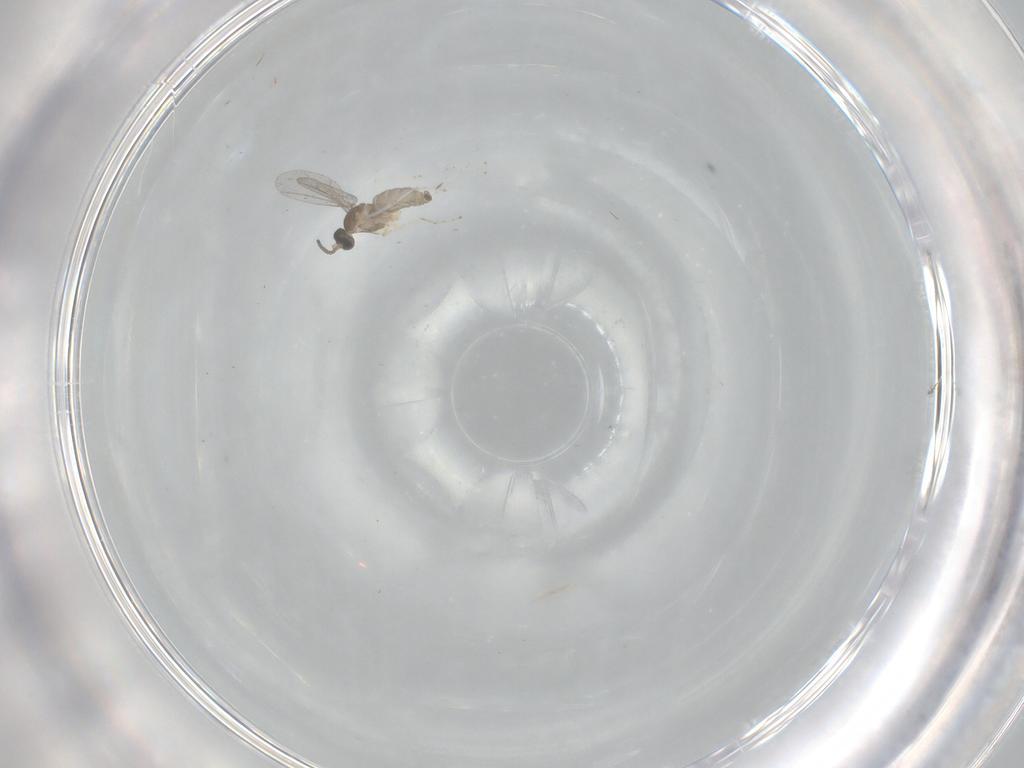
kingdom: Animalia
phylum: Arthropoda
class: Insecta
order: Diptera
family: Cecidomyiidae
